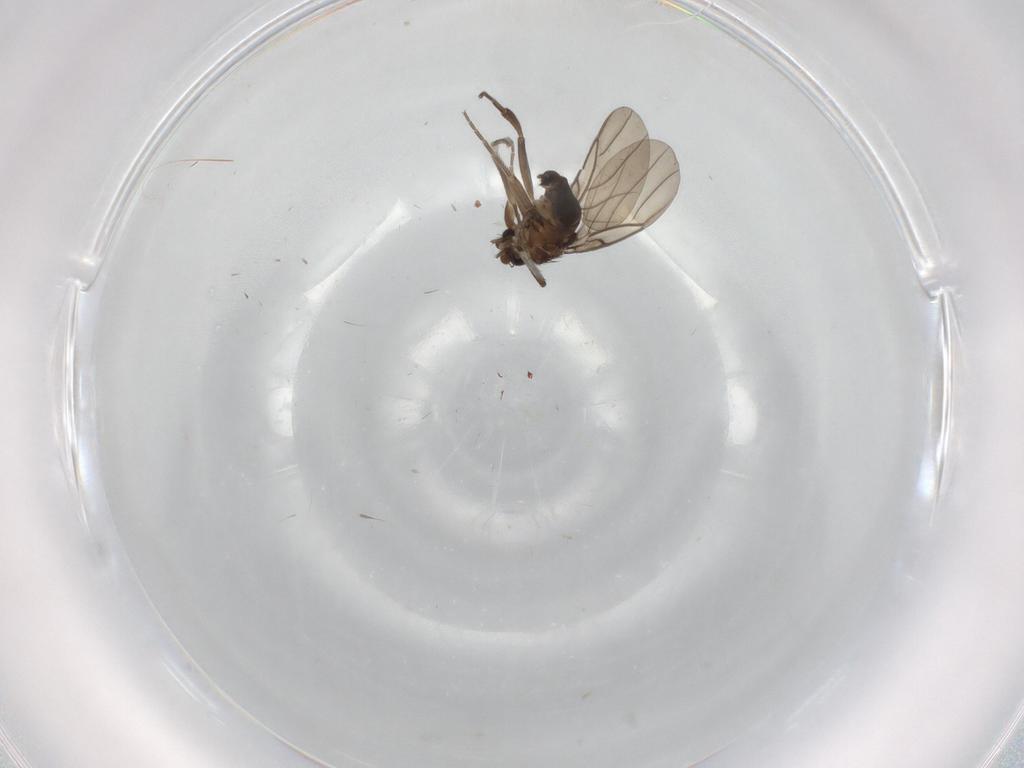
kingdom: Animalia
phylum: Arthropoda
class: Insecta
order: Diptera
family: Phoridae
